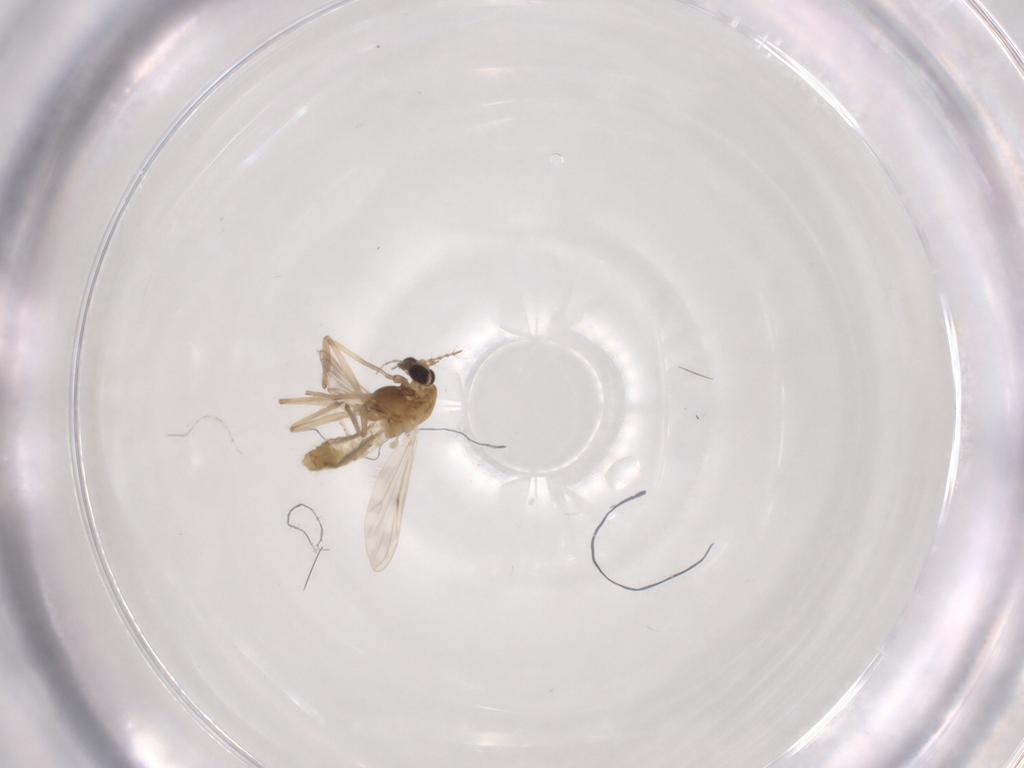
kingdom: Animalia
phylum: Arthropoda
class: Insecta
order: Diptera
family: Chironomidae
